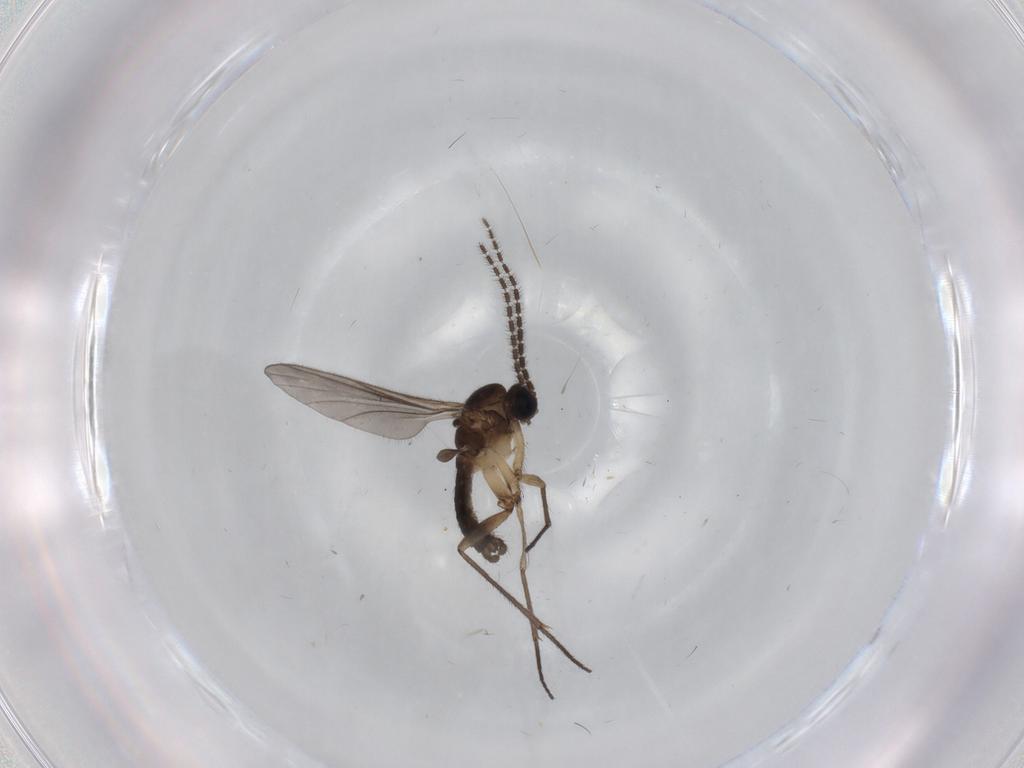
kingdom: Animalia
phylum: Arthropoda
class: Insecta
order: Diptera
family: Sciaridae
